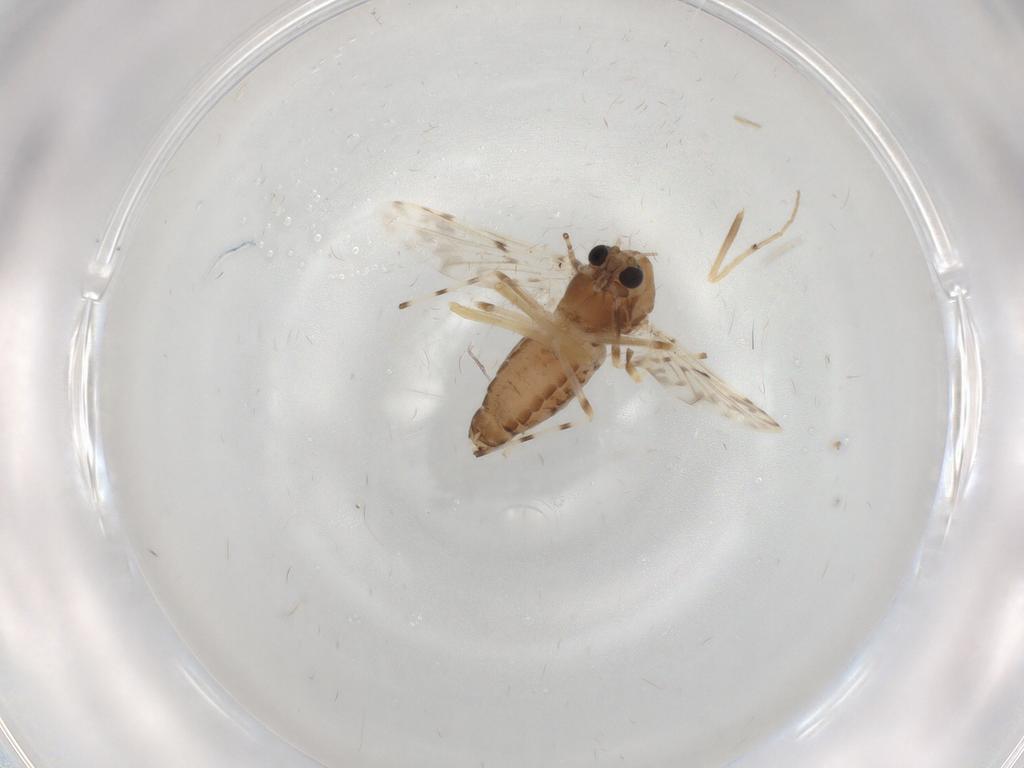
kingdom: Animalia
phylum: Arthropoda
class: Insecta
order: Diptera
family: Chironomidae
